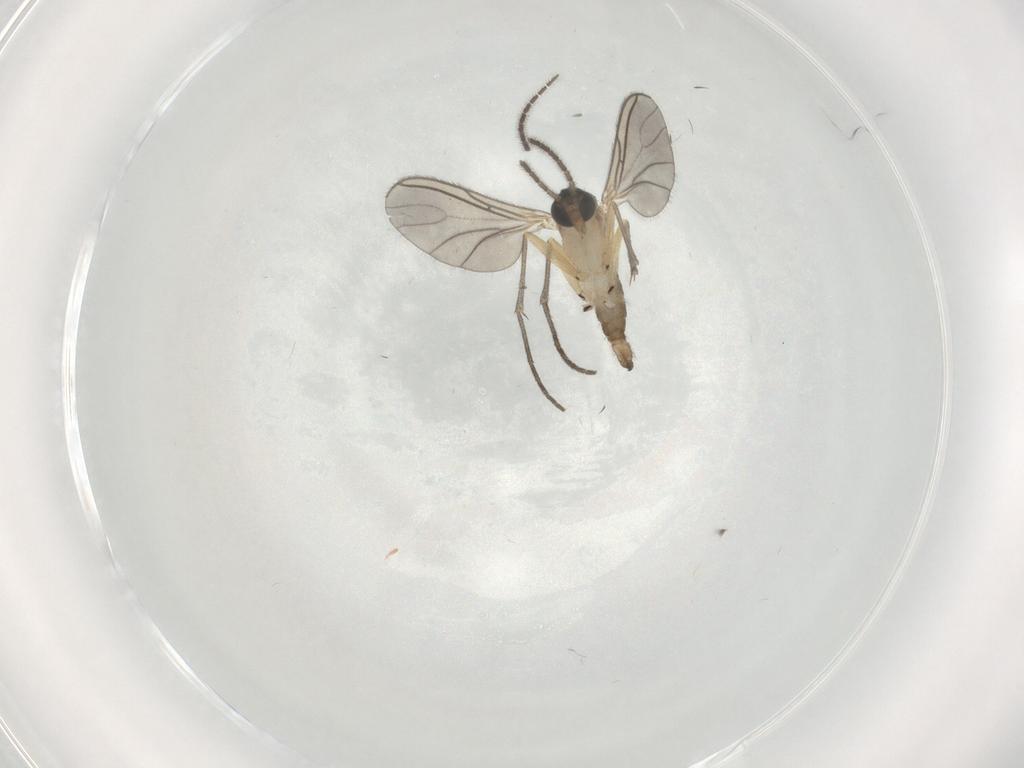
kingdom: Animalia
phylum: Arthropoda
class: Insecta
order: Diptera
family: Sciaridae
